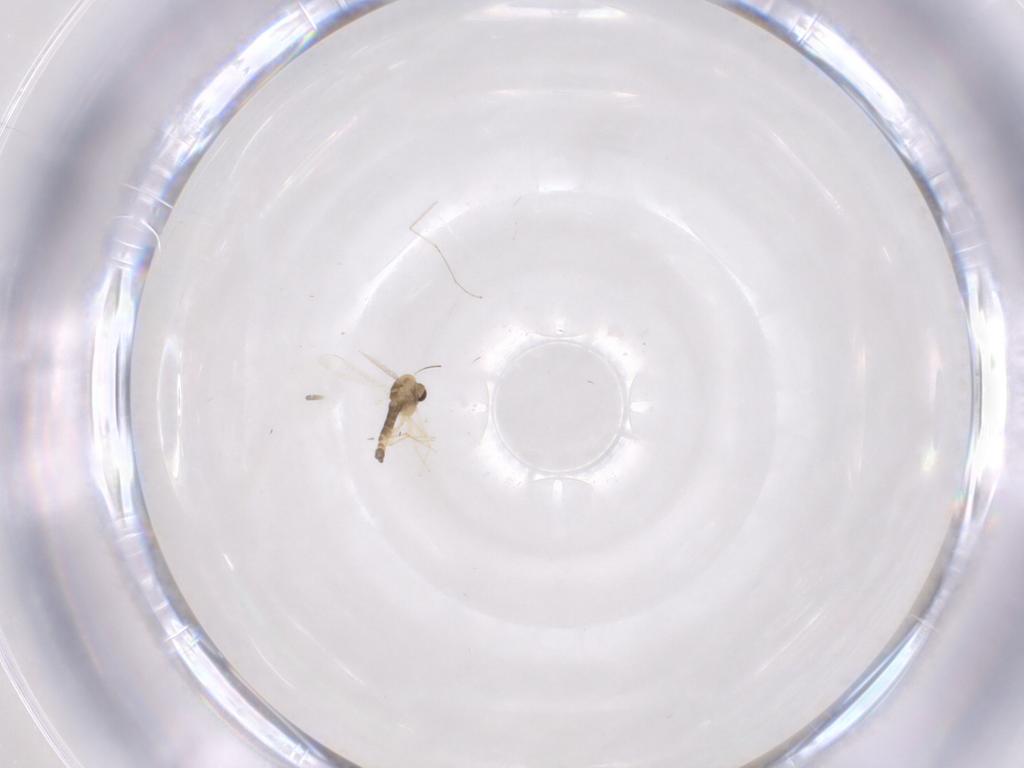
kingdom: Animalia
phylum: Arthropoda
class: Insecta
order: Diptera
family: Chironomidae
